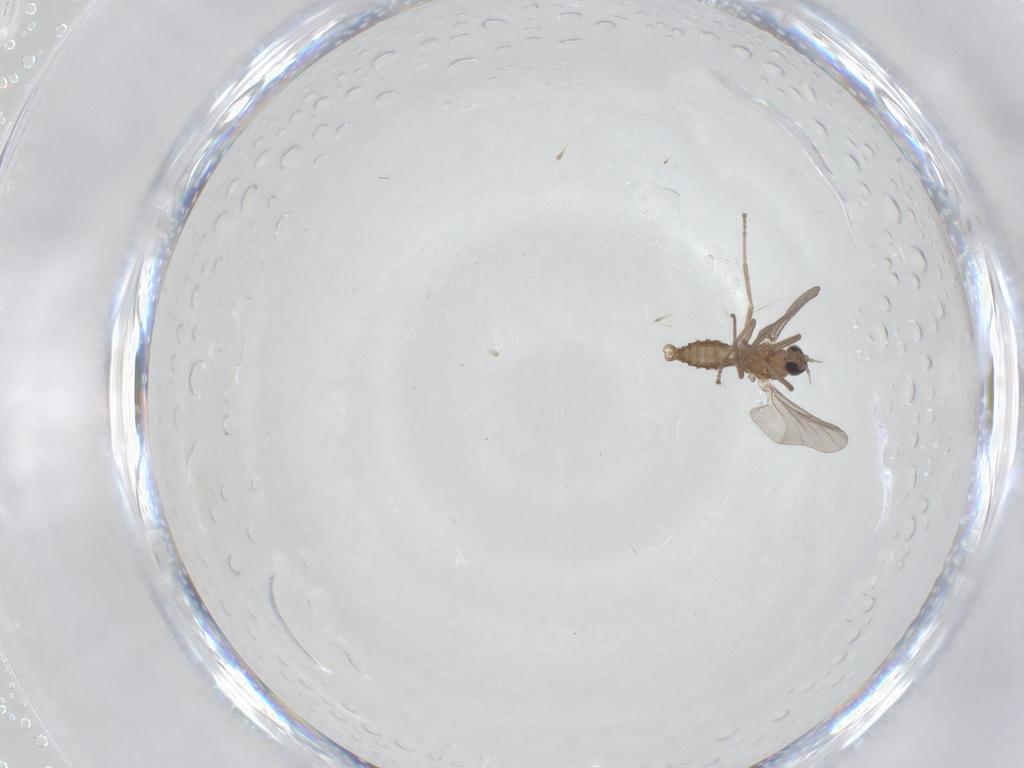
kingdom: Animalia
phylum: Arthropoda
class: Insecta
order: Diptera
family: Cecidomyiidae
